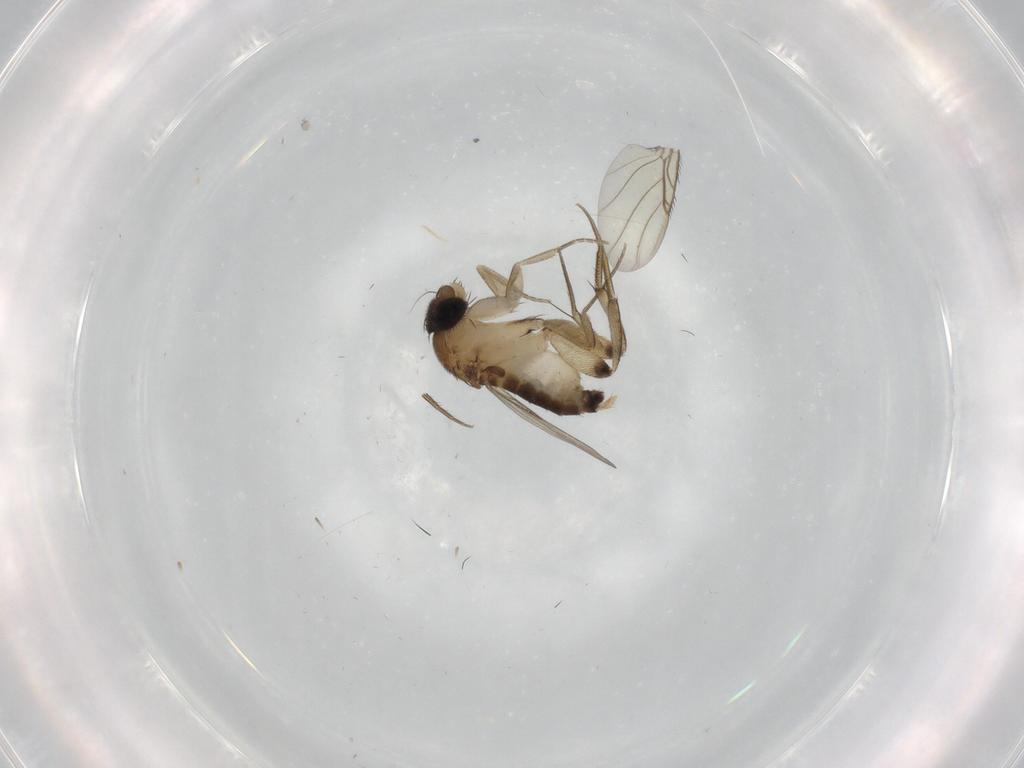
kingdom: Animalia
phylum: Arthropoda
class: Insecta
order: Diptera
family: Phoridae
